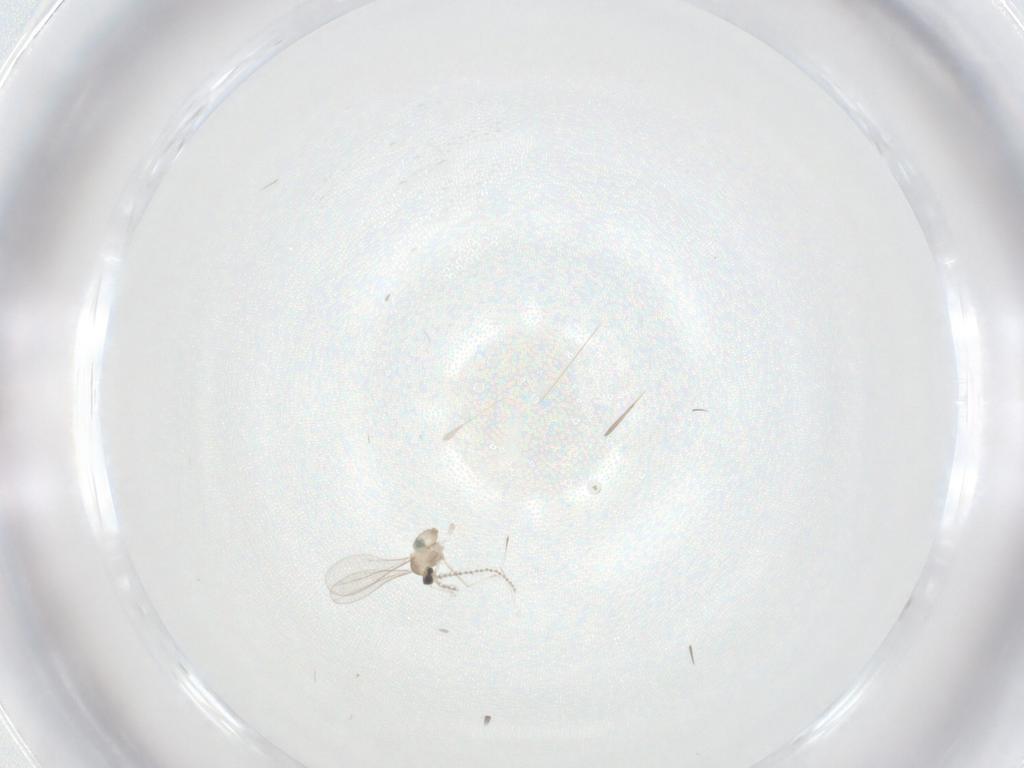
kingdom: Animalia
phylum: Arthropoda
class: Insecta
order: Diptera
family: Cecidomyiidae
